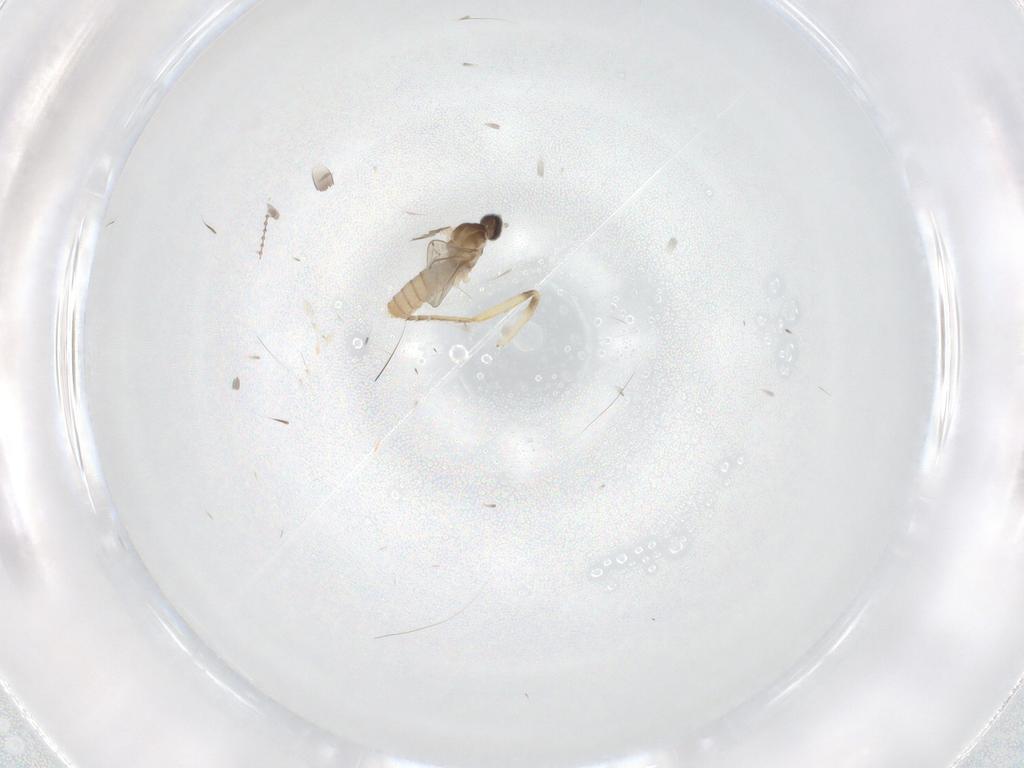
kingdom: Animalia
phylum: Arthropoda
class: Insecta
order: Diptera
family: Cecidomyiidae
